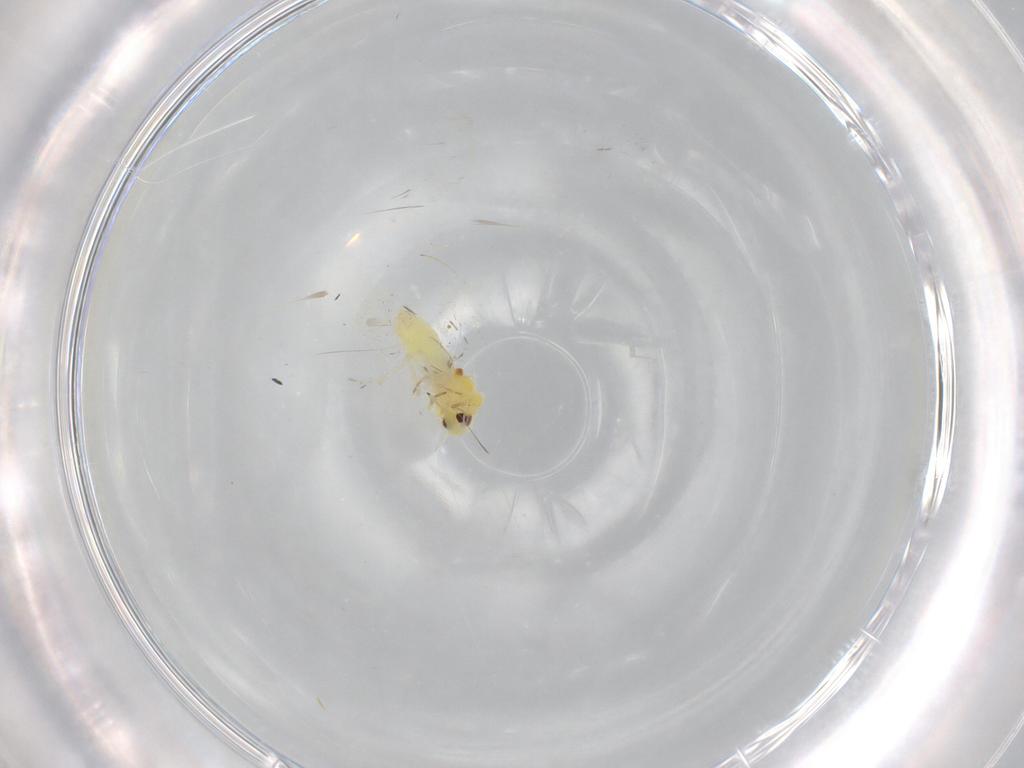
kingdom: Animalia
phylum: Arthropoda
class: Insecta
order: Hemiptera
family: Aleyrodidae
